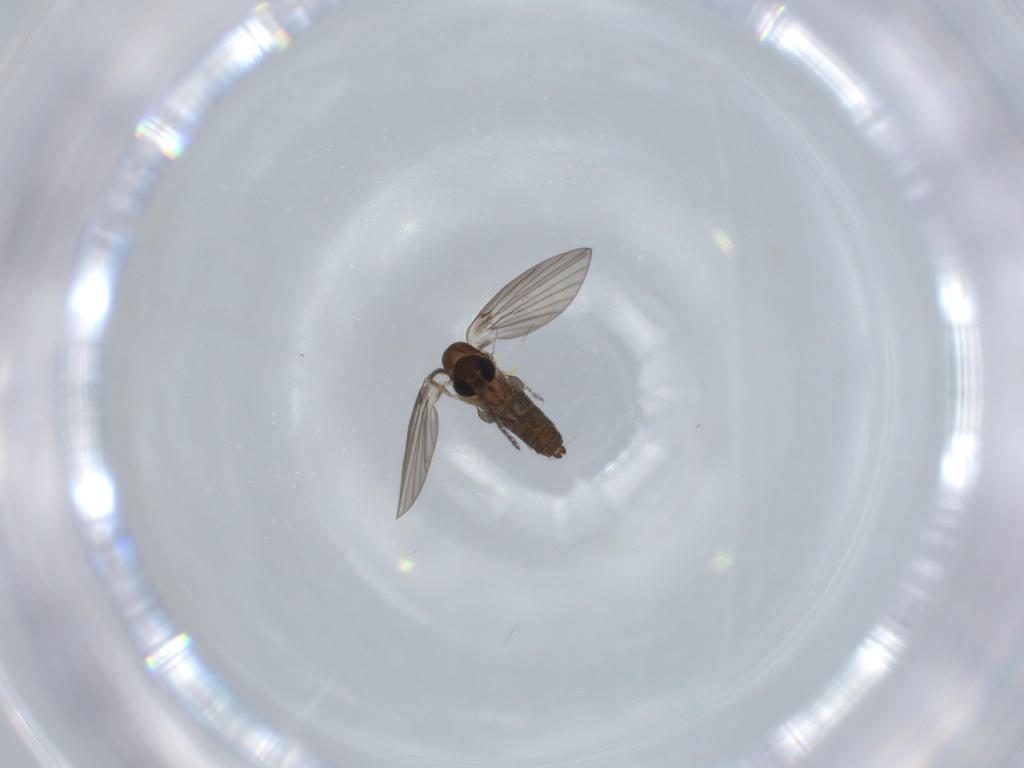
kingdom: Animalia
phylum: Arthropoda
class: Insecta
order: Diptera
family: Psychodidae
